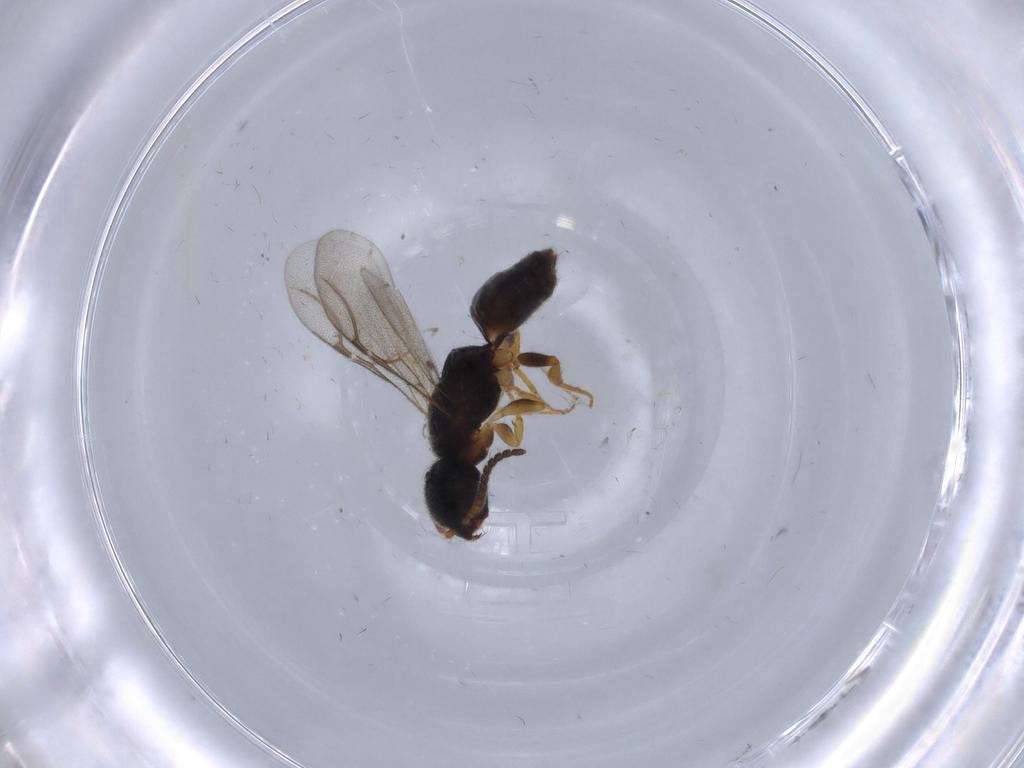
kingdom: Animalia
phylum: Arthropoda
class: Insecta
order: Hymenoptera
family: Bethylidae
